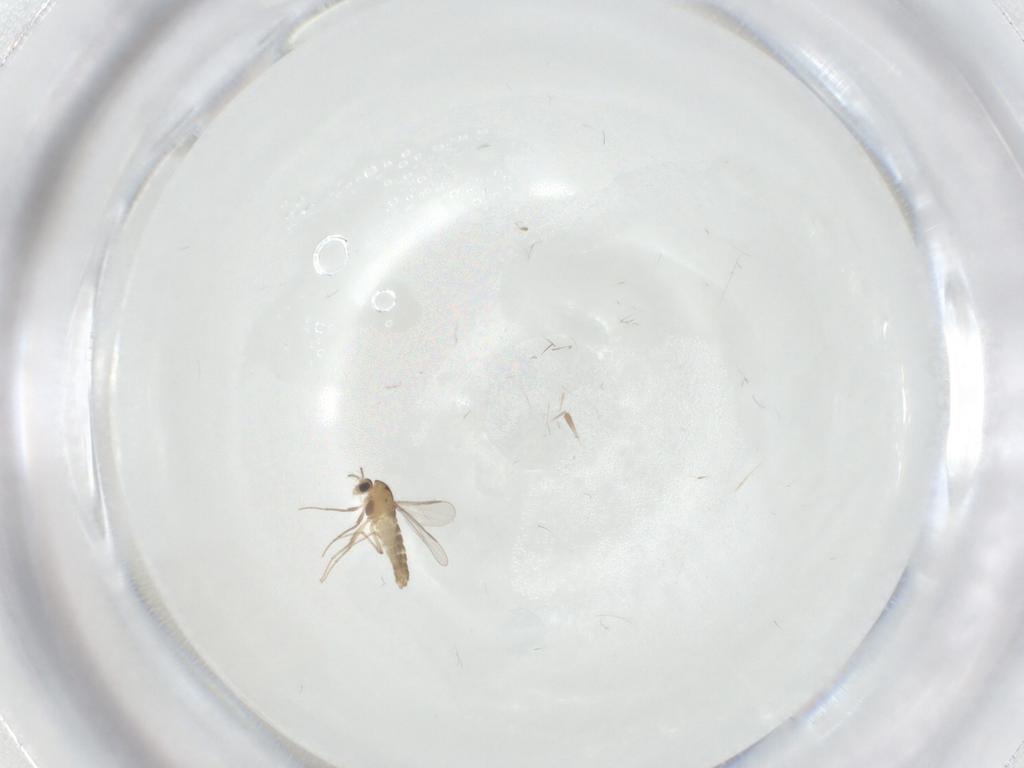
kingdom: Animalia
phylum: Arthropoda
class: Insecta
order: Diptera
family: Chironomidae
